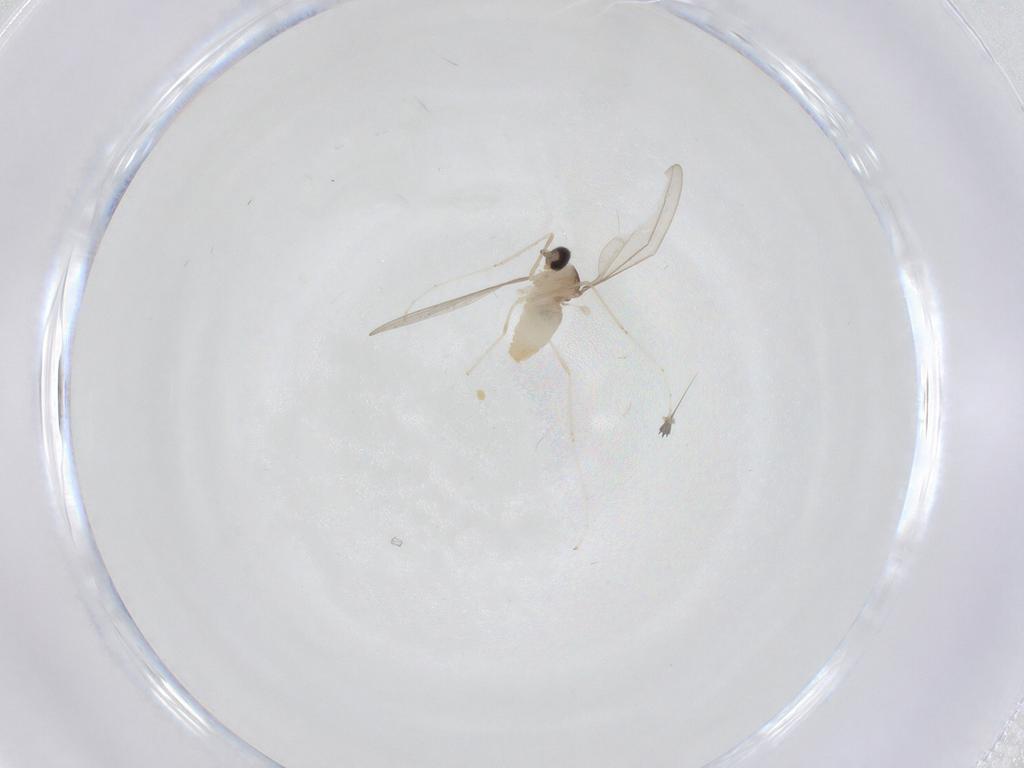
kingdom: Animalia
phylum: Arthropoda
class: Insecta
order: Diptera
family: Cecidomyiidae
